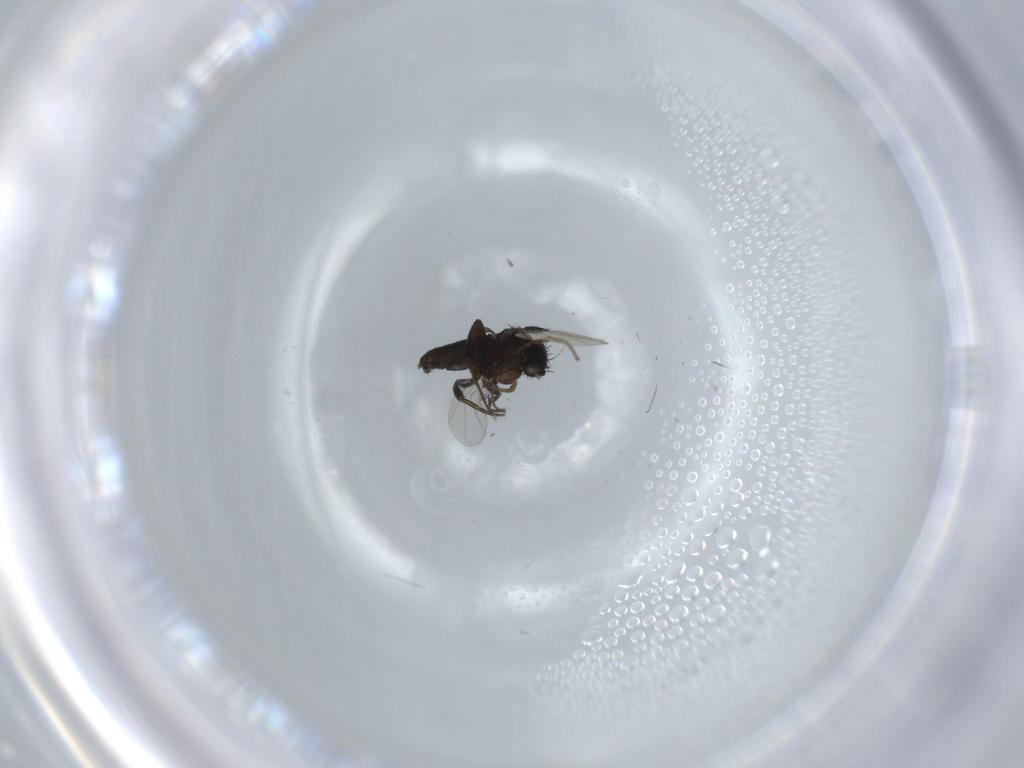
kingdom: Animalia
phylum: Arthropoda
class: Insecta
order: Diptera
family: Phoridae
